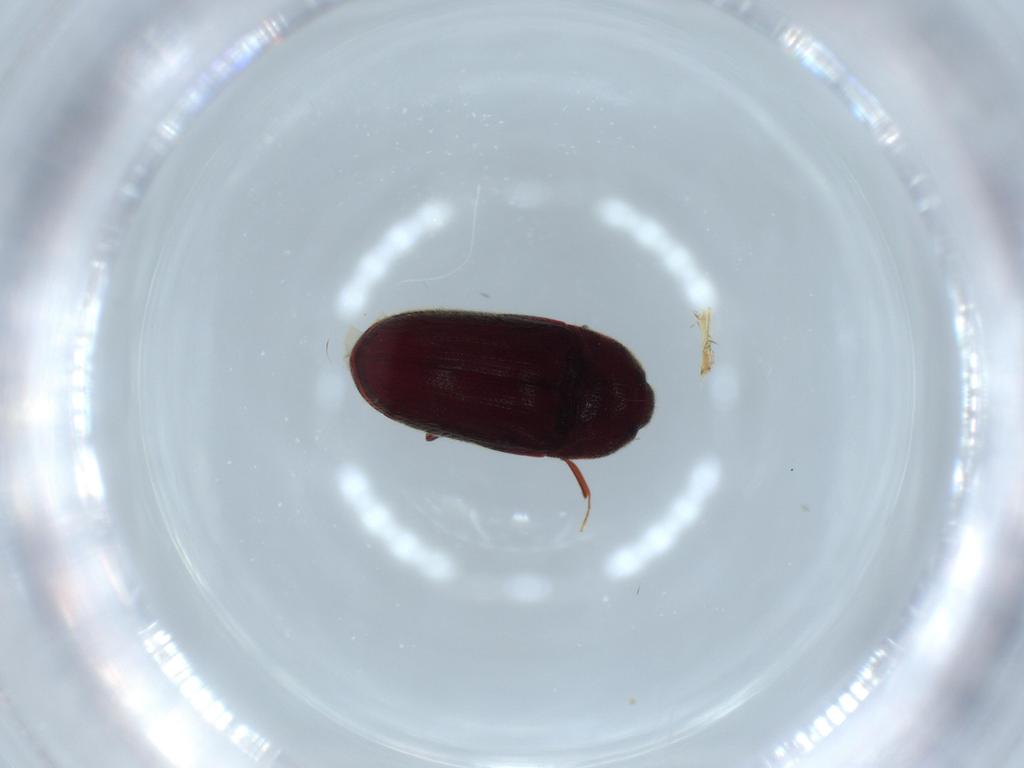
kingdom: Animalia
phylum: Arthropoda
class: Insecta
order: Coleoptera
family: Throscidae
